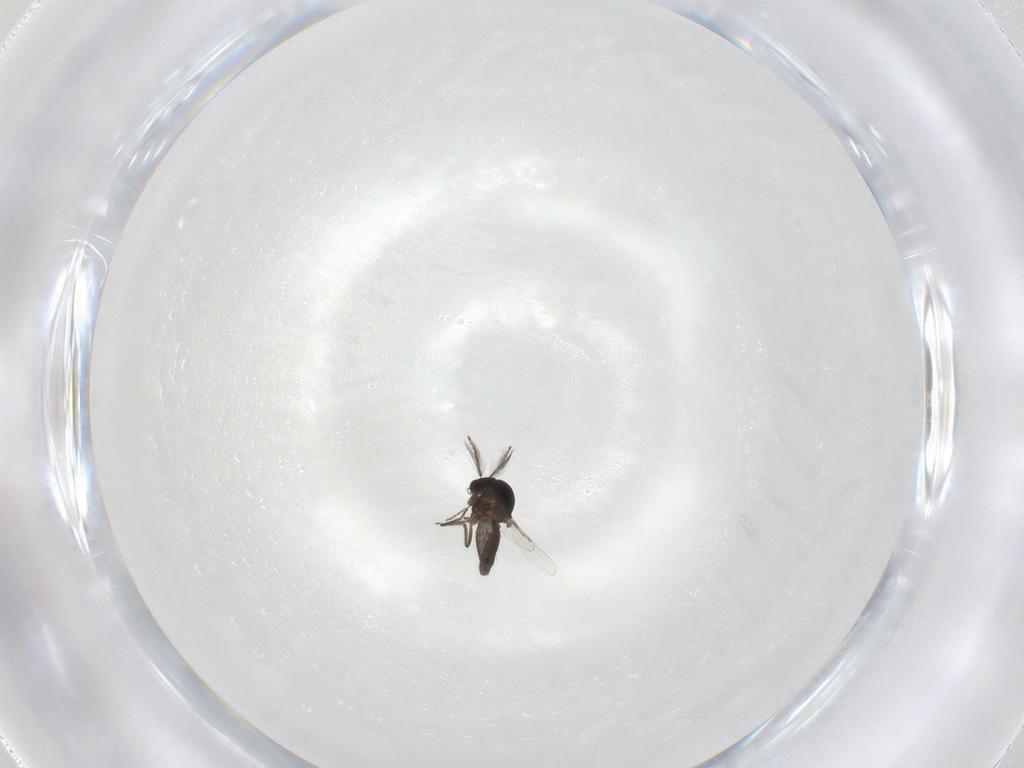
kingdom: Animalia
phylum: Arthropoda
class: Insecta
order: Diptera
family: Ceratopogonidae
